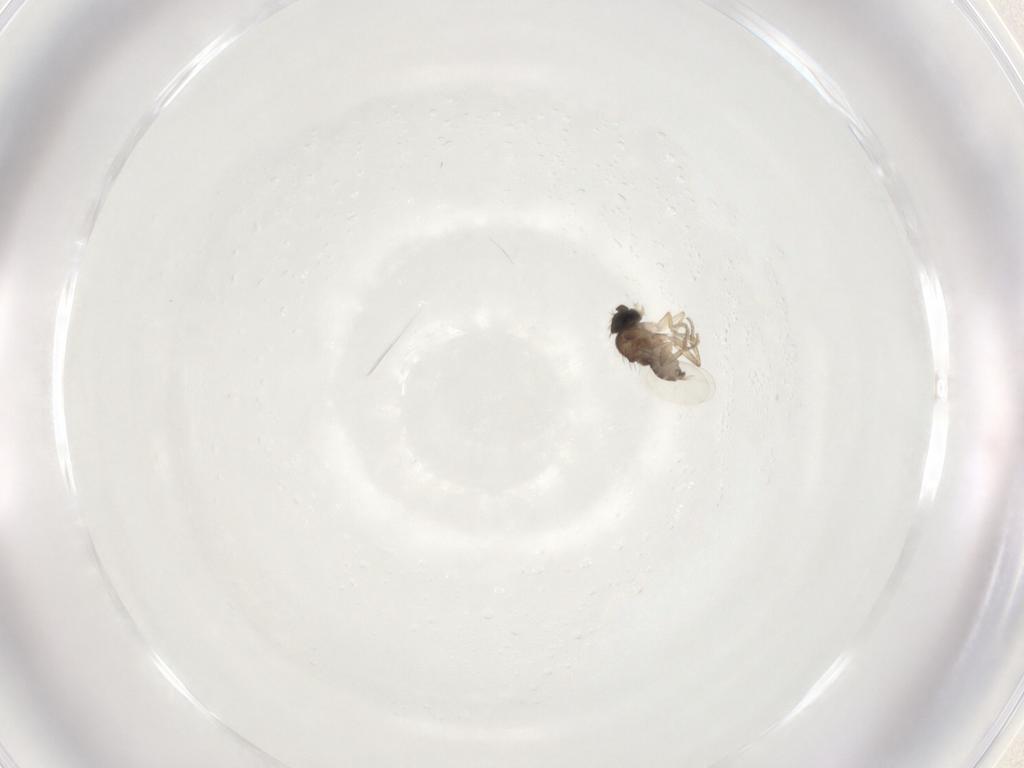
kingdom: Animalia
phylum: Arthropoda
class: Insecta
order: Diptera
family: Phoridae
